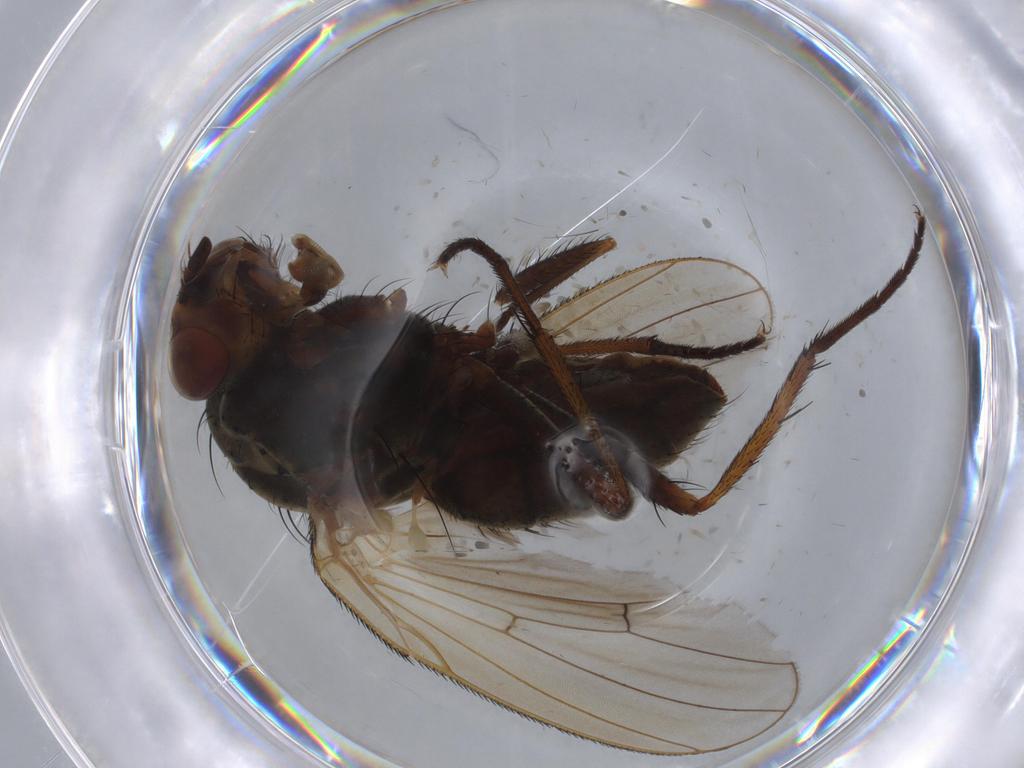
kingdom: Animalia
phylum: Arthropoda
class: Insecta
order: Diptera
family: Anthomyiidae
